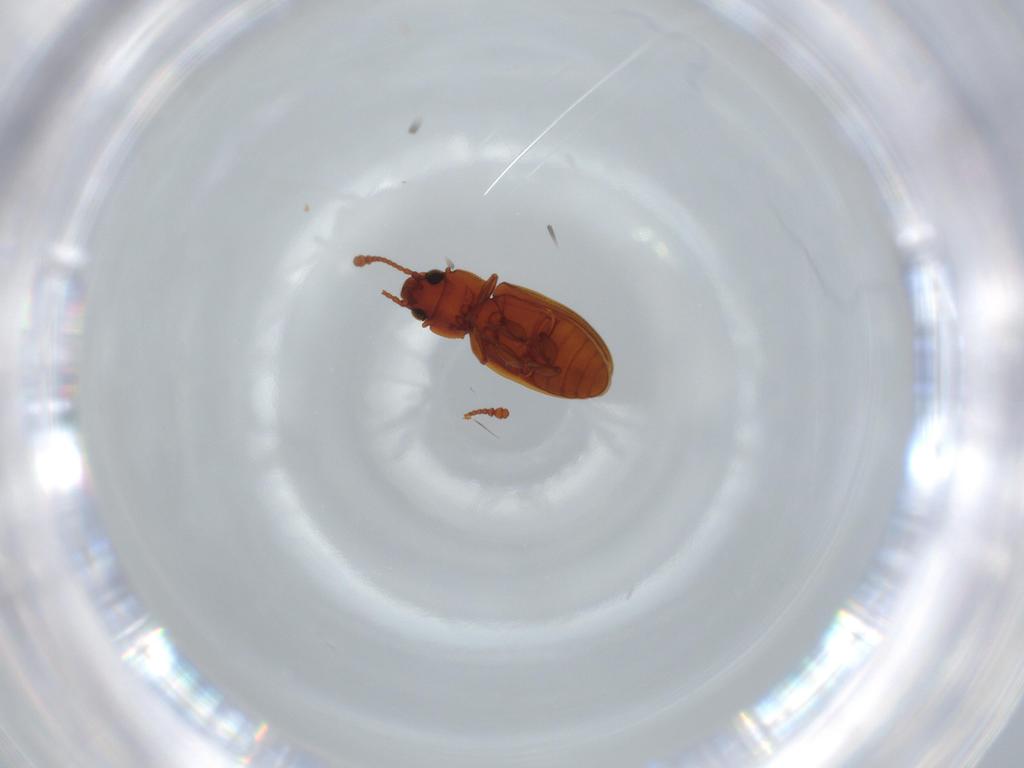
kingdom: Animalia
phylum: Arthropoda
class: Insecta
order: Coleoptera
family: Silvanidae
